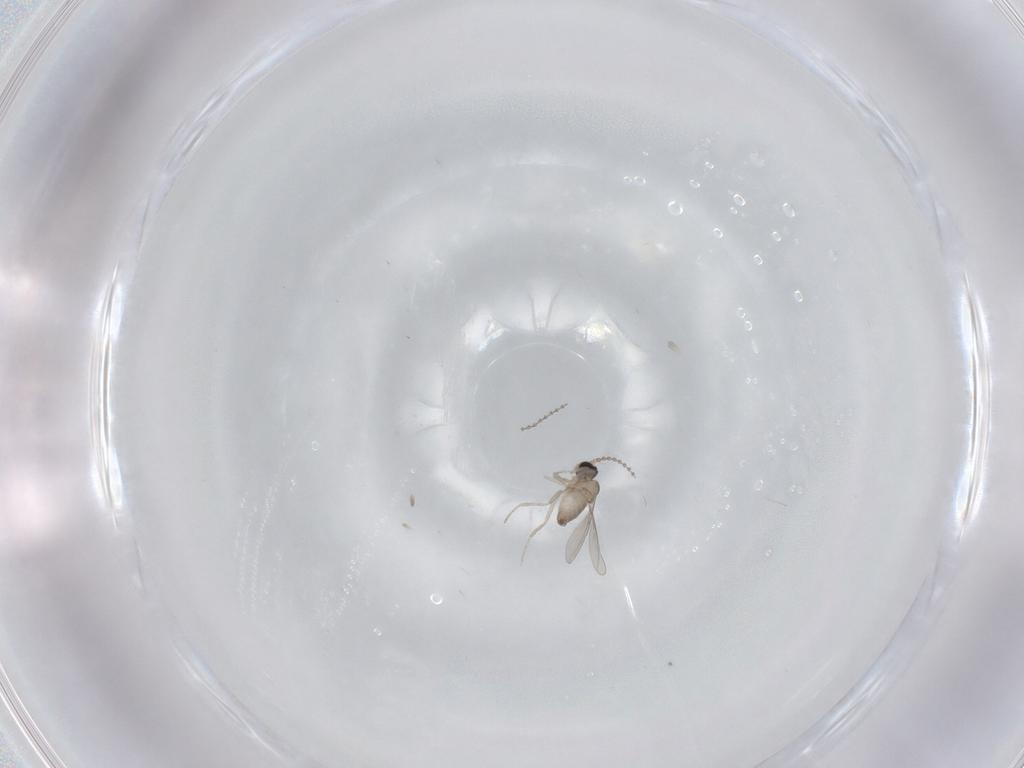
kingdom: Animalia
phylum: Arthropoda
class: Insecta
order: Diptera
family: Cecidomyiidae
